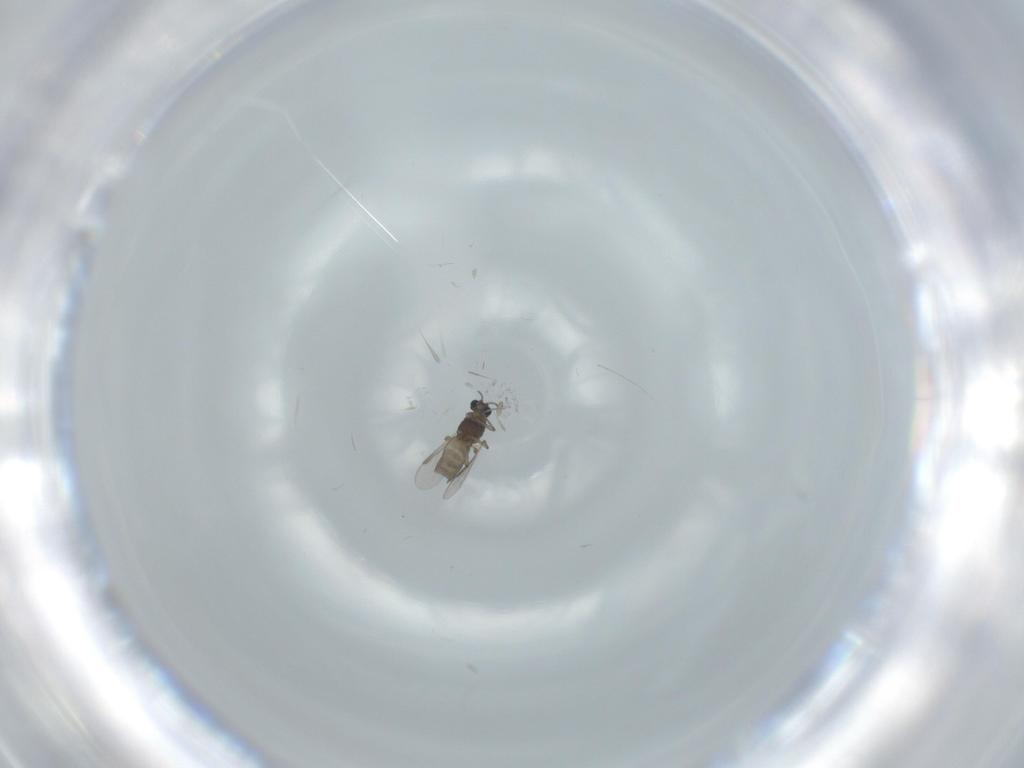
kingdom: Animalia
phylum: Arthropoda
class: Insecta
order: Diptera
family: Chironomidae
